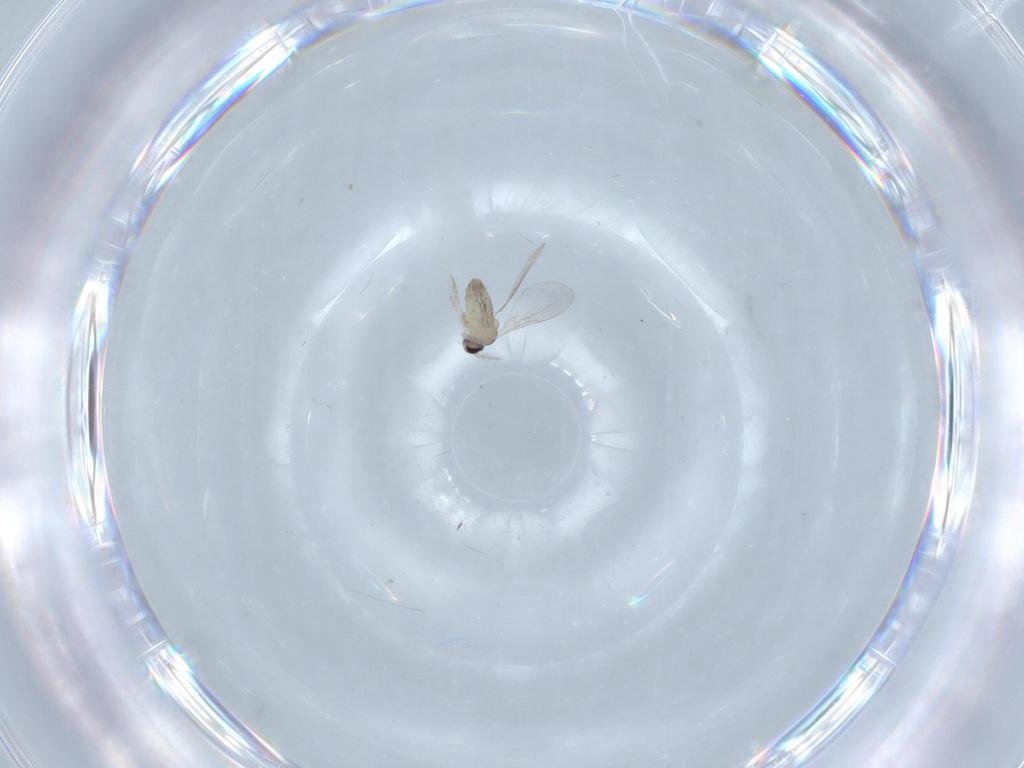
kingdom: Animalia
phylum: Arthropoda
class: Insecta
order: Diptera
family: Cecidomyiidae
